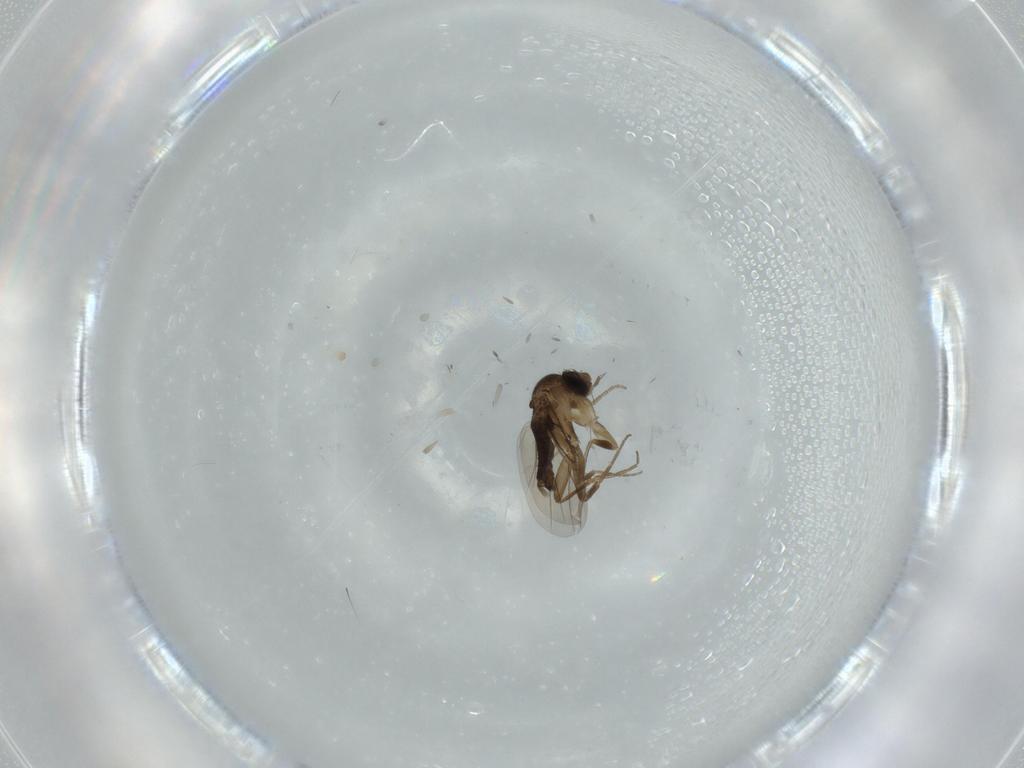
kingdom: Animalia
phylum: Arthropoda
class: Insecta
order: Diptera
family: Phoridae
